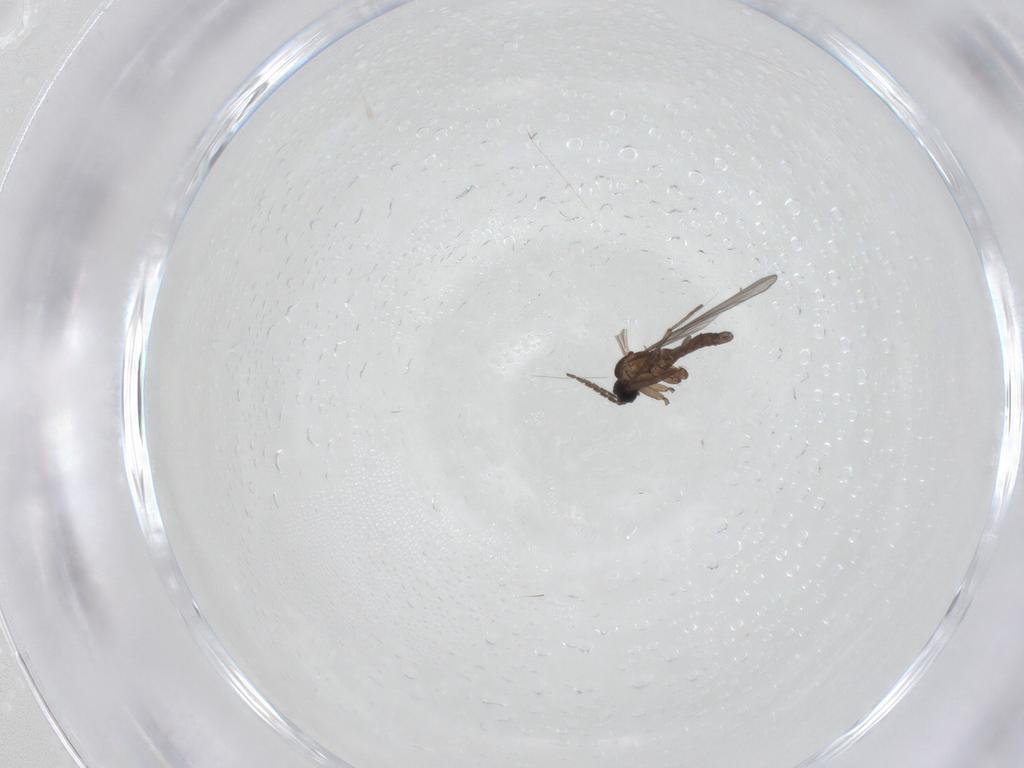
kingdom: Animalia
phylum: Arthropoda
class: Insecta
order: Diptera
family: Sciaridae
